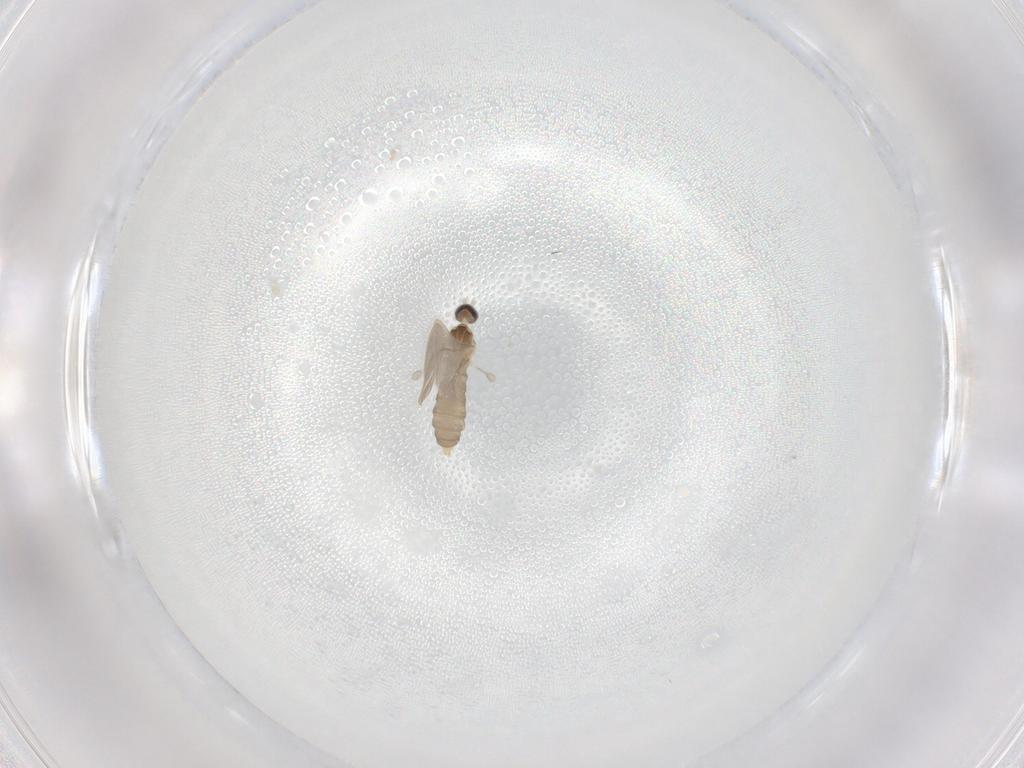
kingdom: Animalia
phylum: Arthropoda
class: Insecta
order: Diptera
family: Cecidomyiidae
